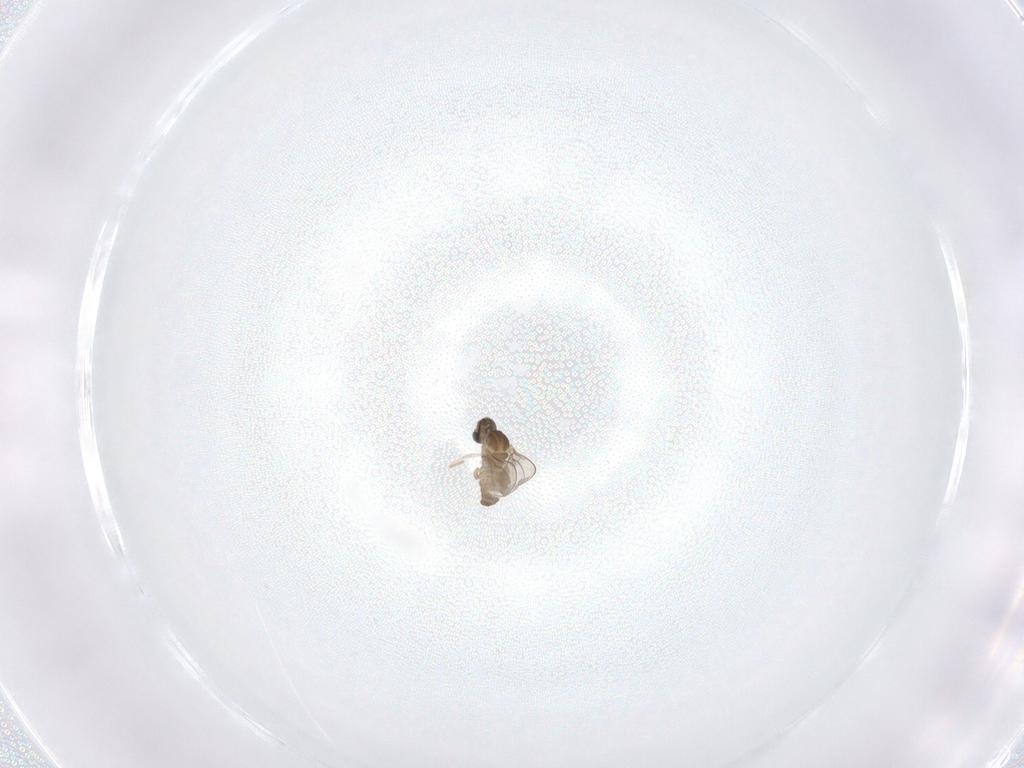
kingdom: Animalia
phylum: Arthropoda
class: Insecta
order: Diptera
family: Cecidomyiidae
